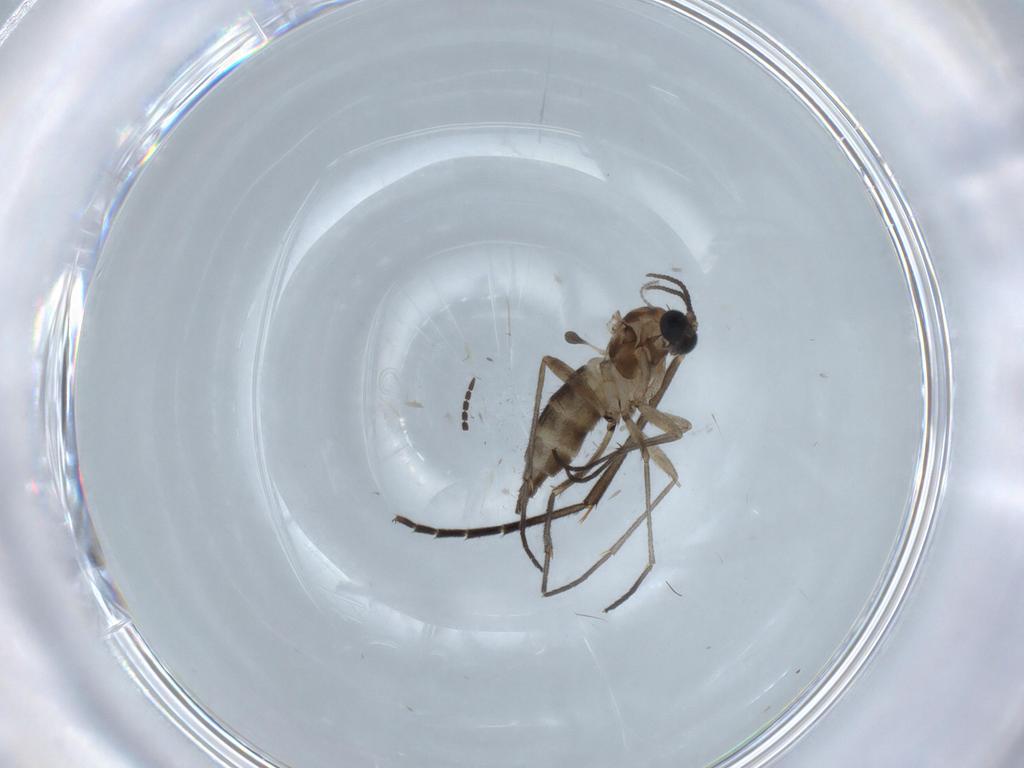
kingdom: Animalia
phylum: Arthropoda
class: Insecta
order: Diptera
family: Sciaridae
